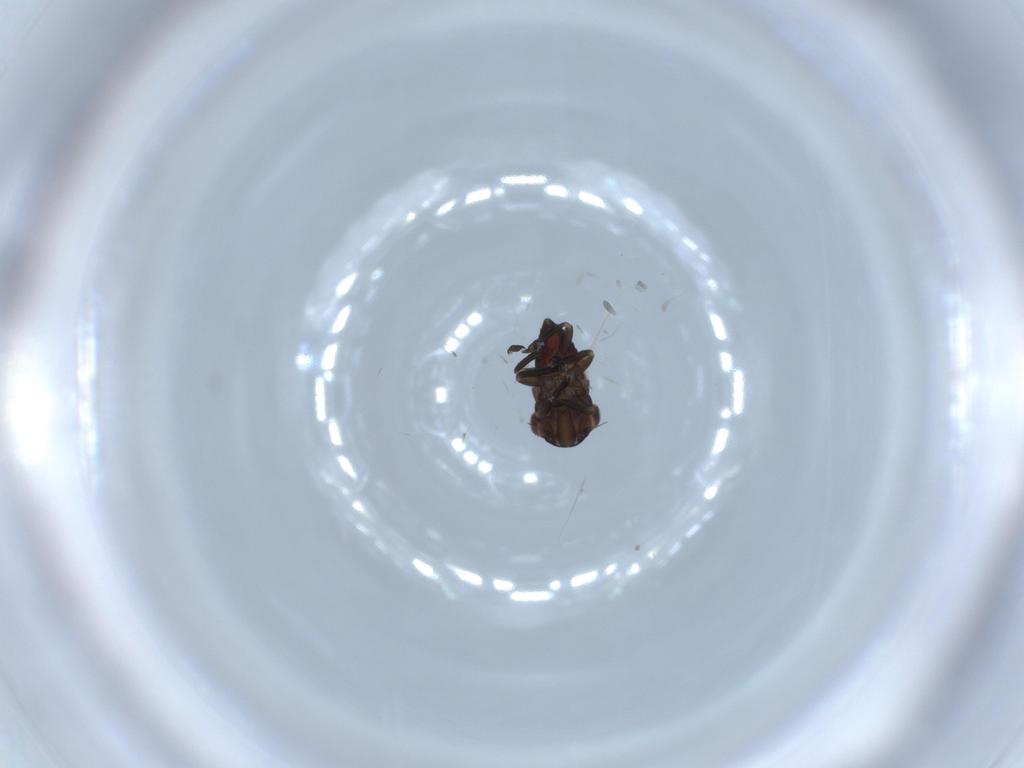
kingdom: Animalia
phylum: Arthropoda
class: Insecta
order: Hemiptera
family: Cicadellidae
